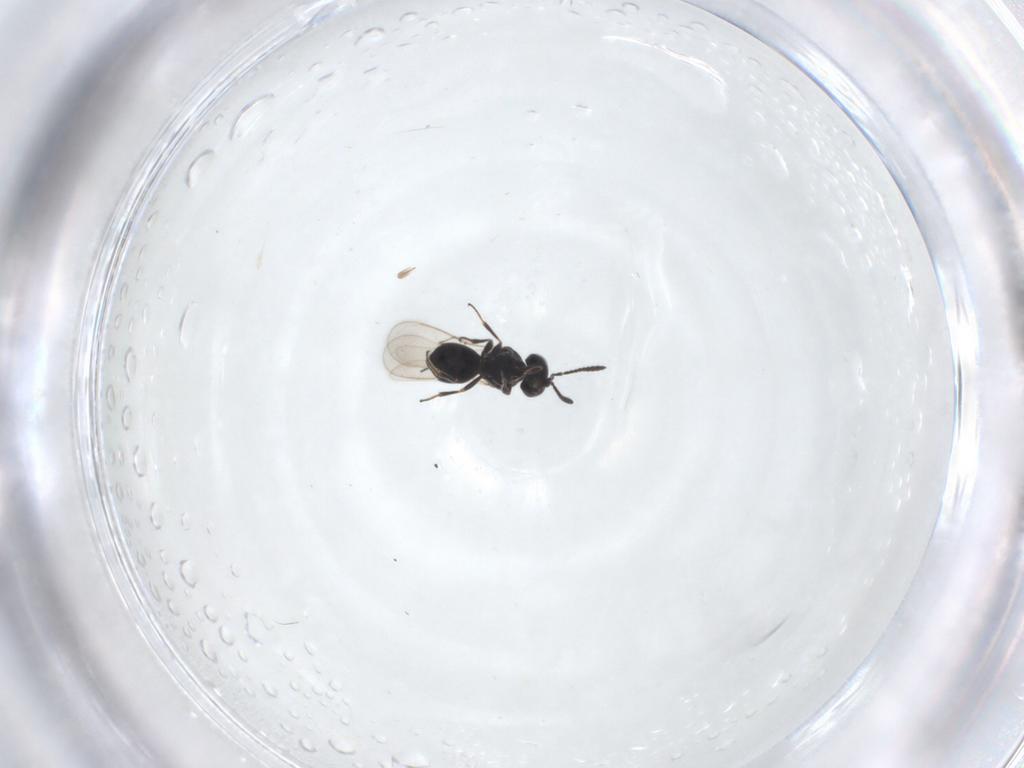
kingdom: Animalia
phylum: Arthropoda
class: Insecta
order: Hymenoptera
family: Scelionidae
